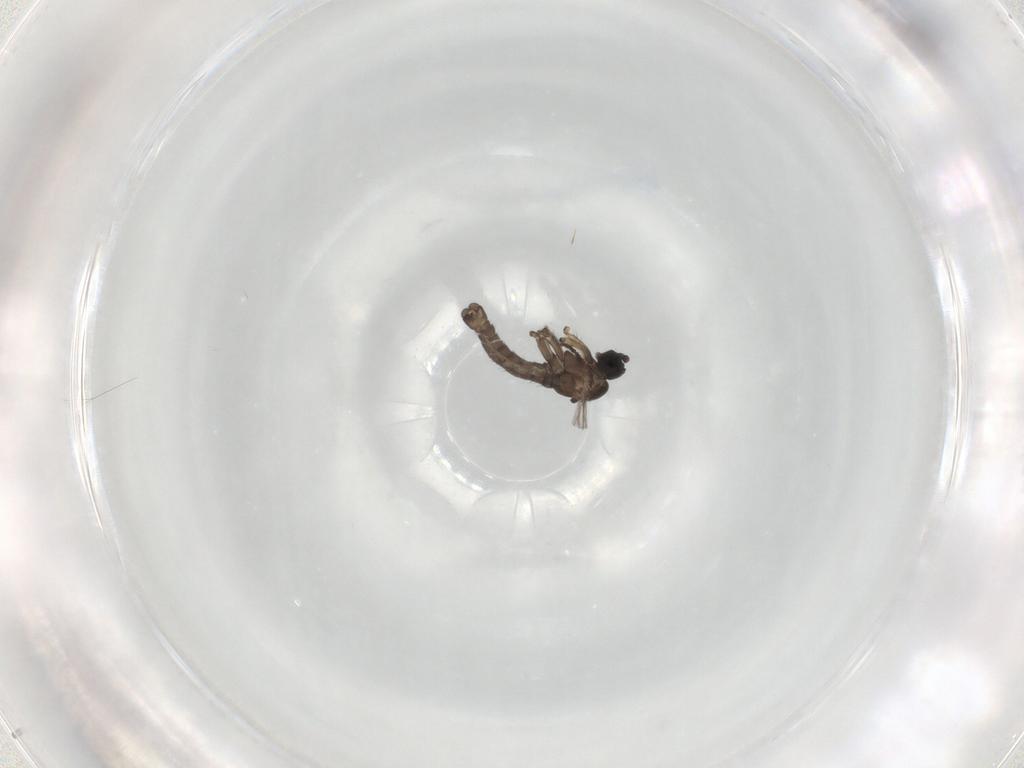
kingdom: Animalia
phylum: Arthropoda
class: Insecta
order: Diptera
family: Sciaridae
